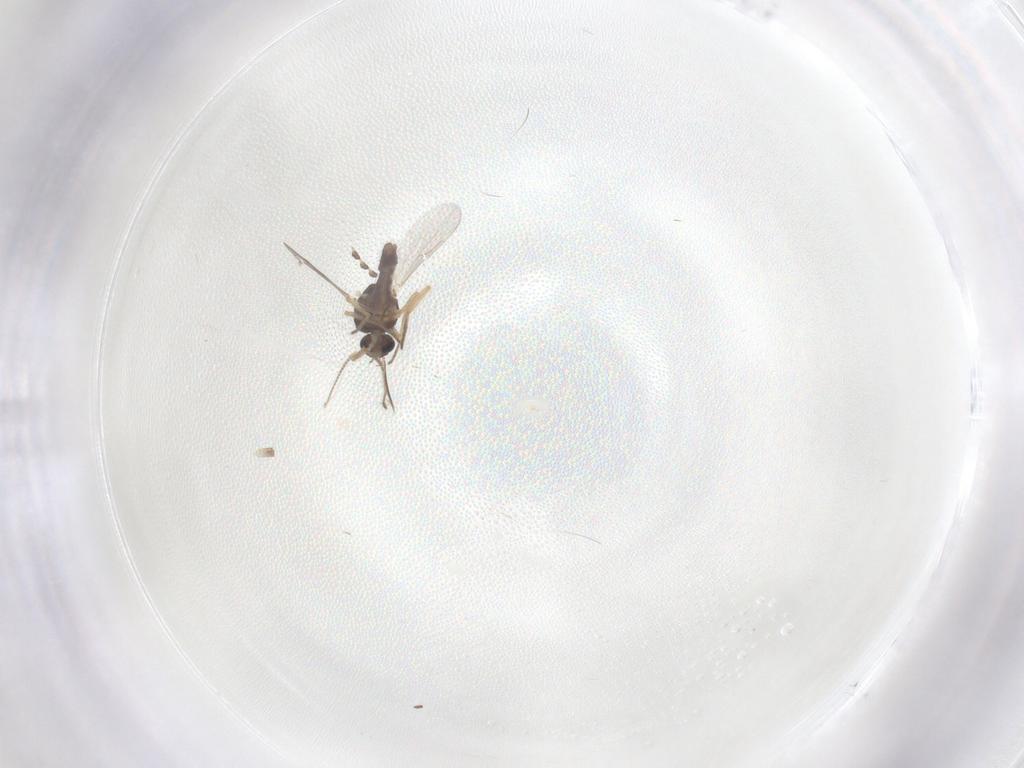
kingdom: Animalia
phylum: Arthropoda
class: Insecta
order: Diptera
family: Ceratopogonidae
